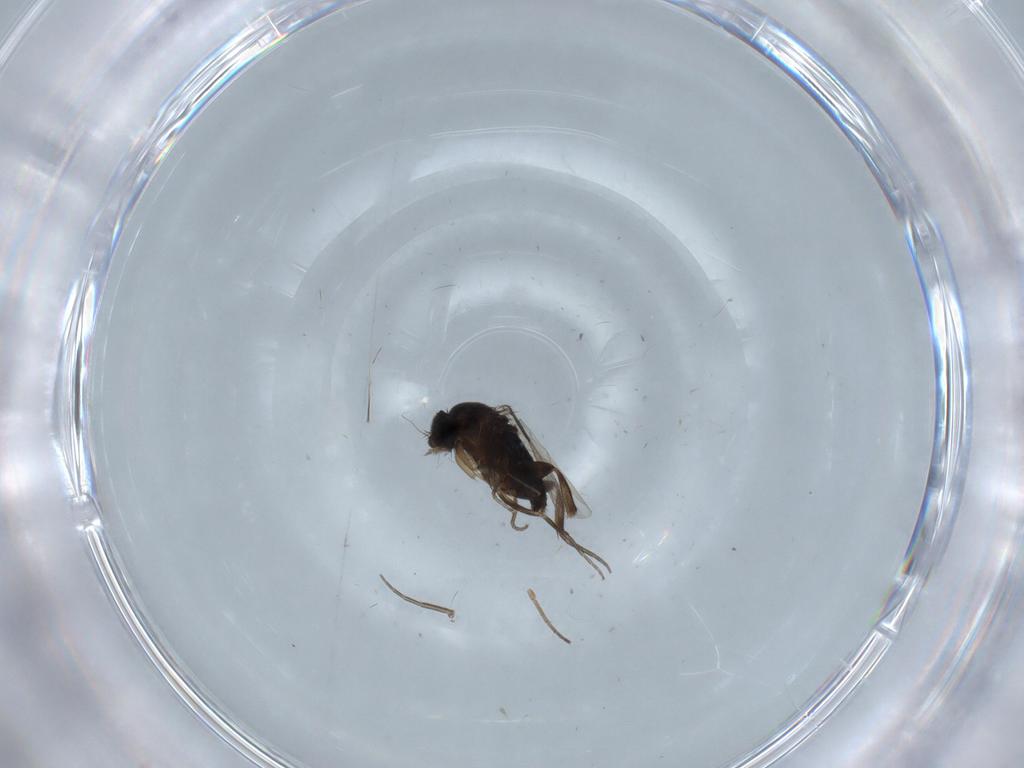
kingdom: Animalia
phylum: Arthropoda
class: Insecta
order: Diptera
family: Phoridae
